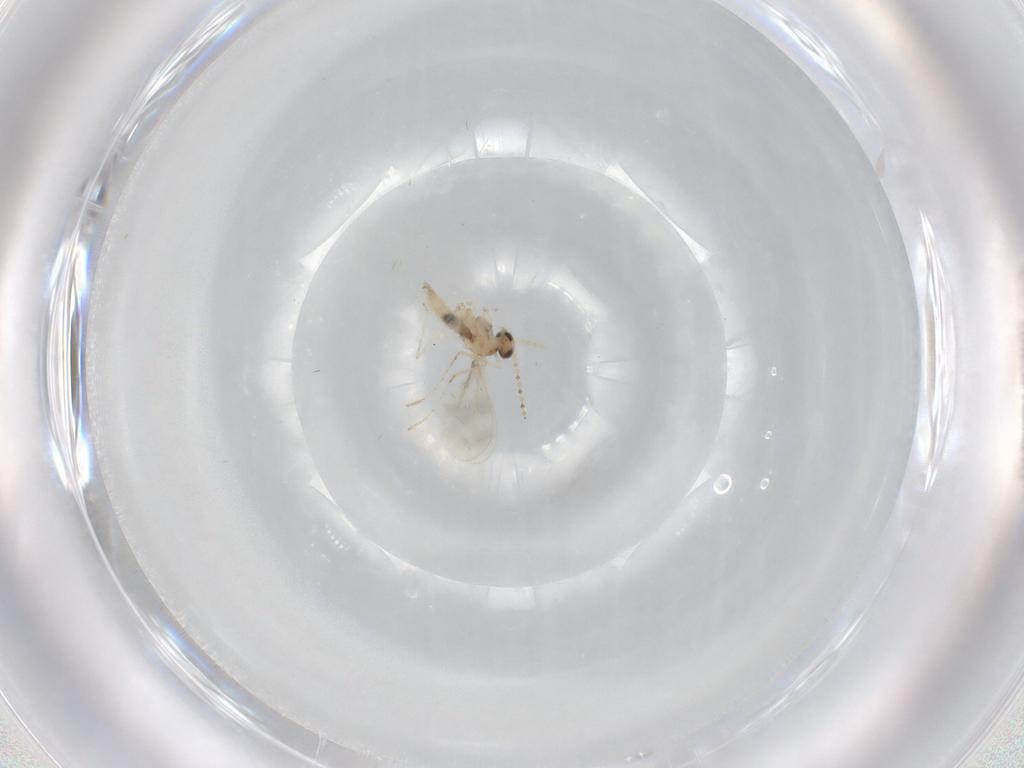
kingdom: Animalia
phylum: Arthropoda
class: Insecta
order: Diptera
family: Cecidomyiidae
